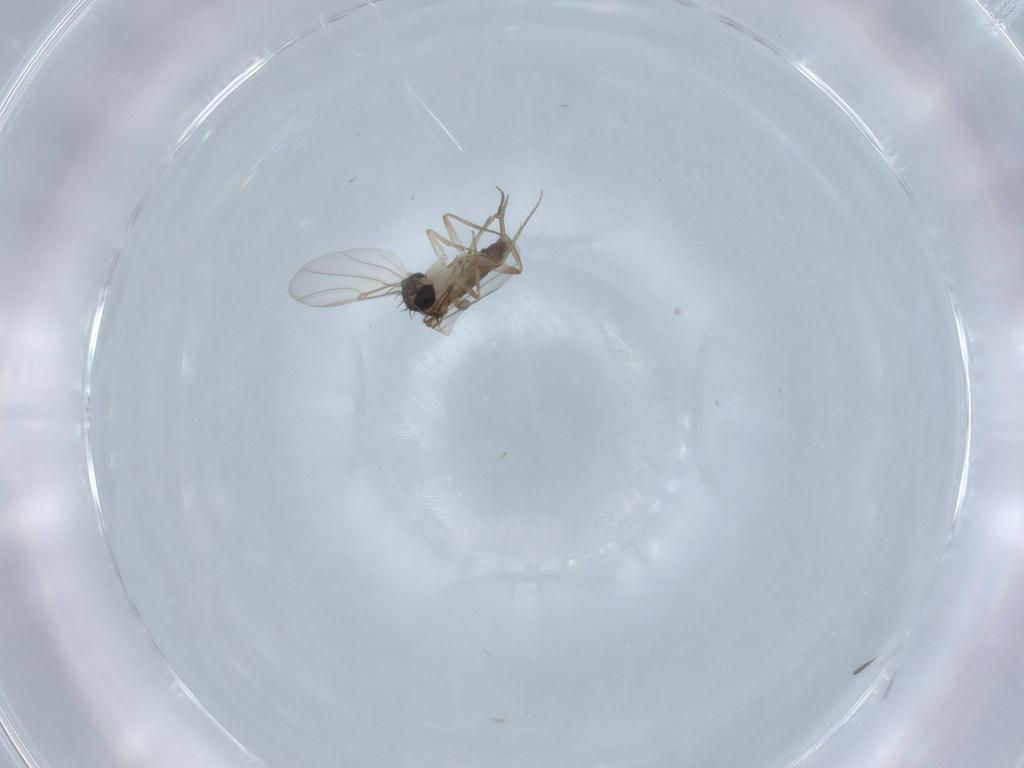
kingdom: Animalia
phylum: Arthropoda
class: Insecta
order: Diptera
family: Phoridae
